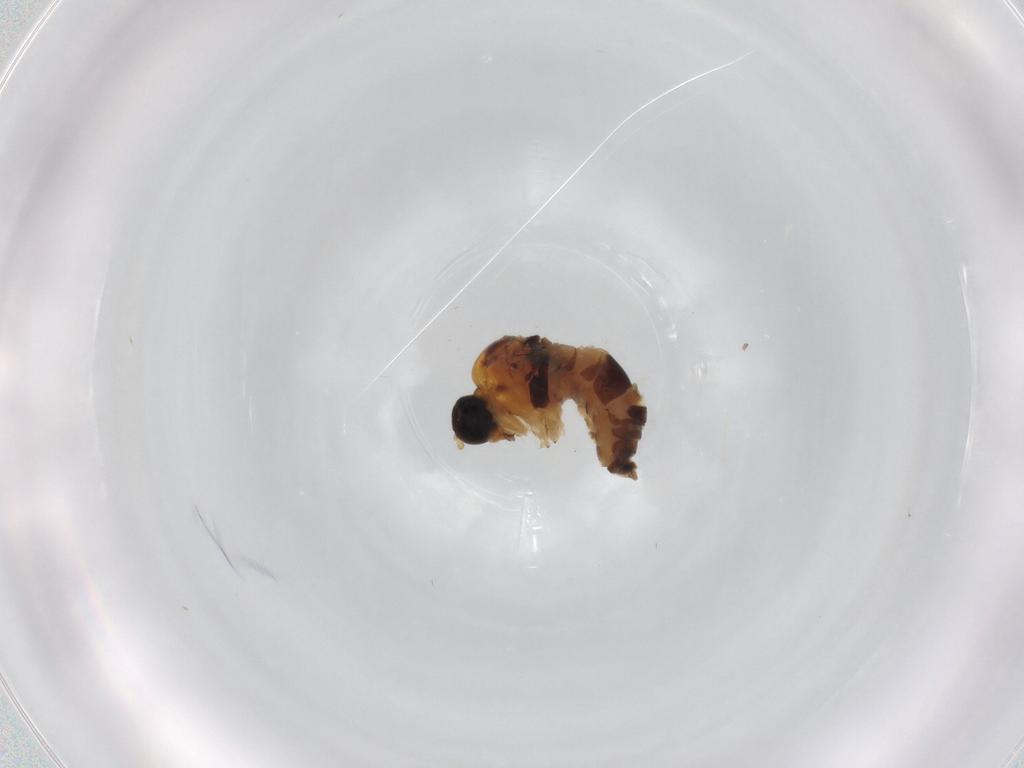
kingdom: Animalia
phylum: Arthropoda
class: Insecta
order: Diptera
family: Hybotidae
